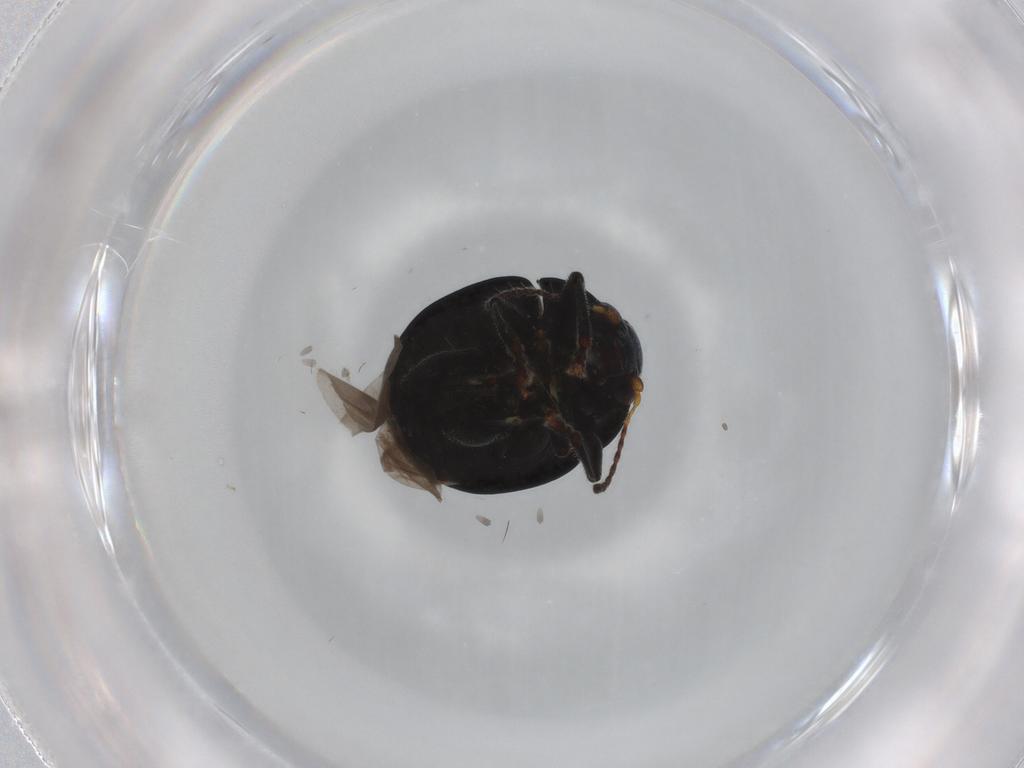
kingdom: Animalia
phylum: Arthropoda
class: Insecta
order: Coleoptera
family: Chrysomelidae
